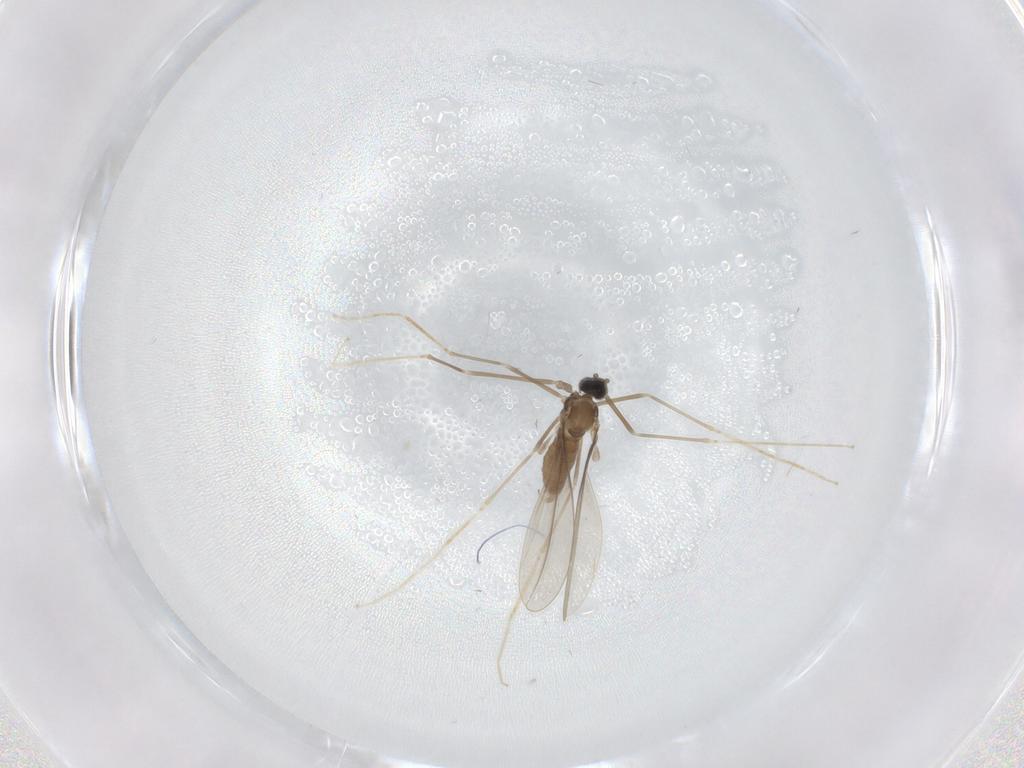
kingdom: Animalia
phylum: Arthropoda
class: Insecta
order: Diptera
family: Cecidomyiidae
